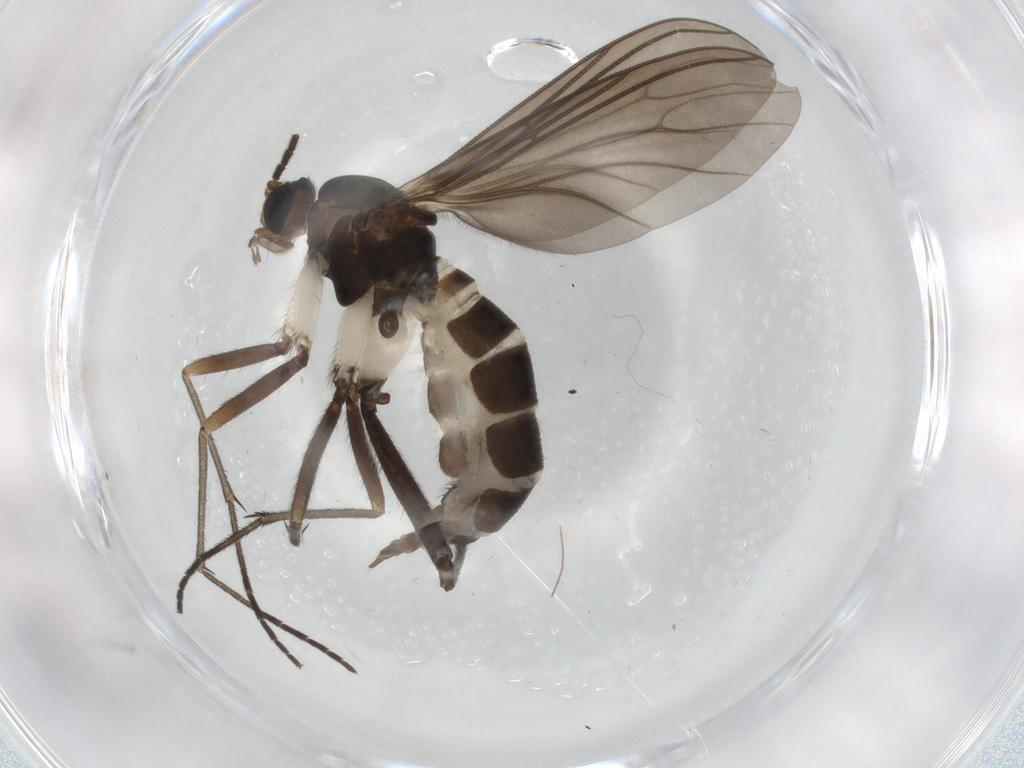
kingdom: Animalia
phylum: Arthropoda
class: Insecta
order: Diptera
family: Sciaridae
